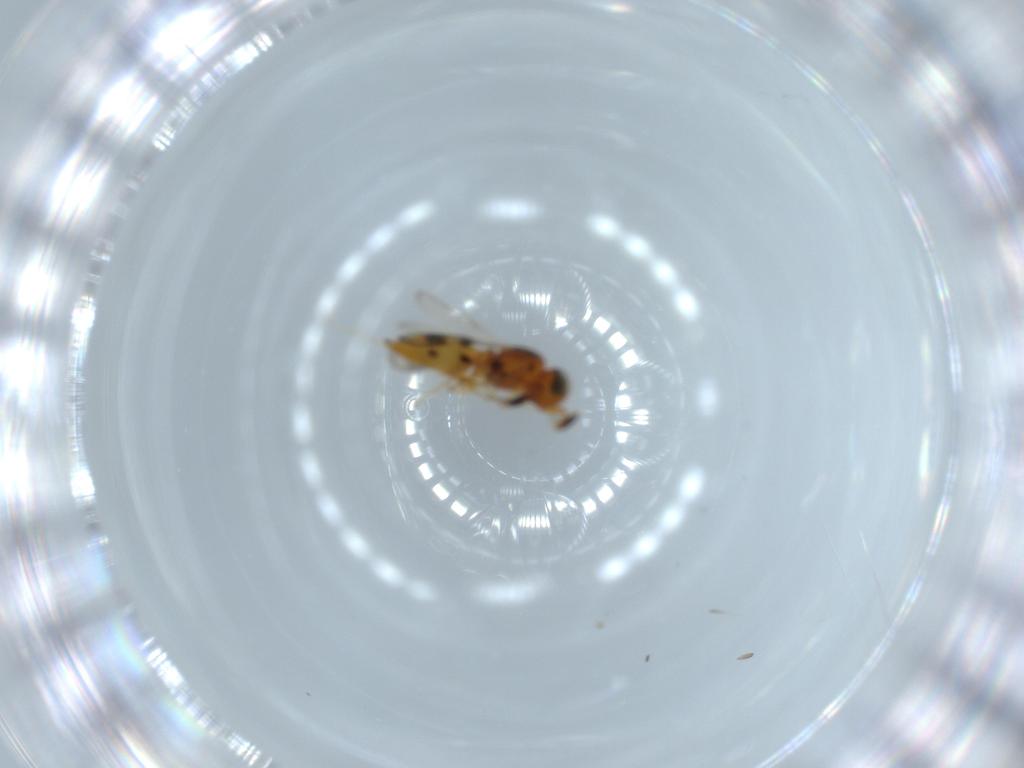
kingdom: Animalia
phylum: Arthropoda
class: Insecta
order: Hymenoptera
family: Scelionidae
